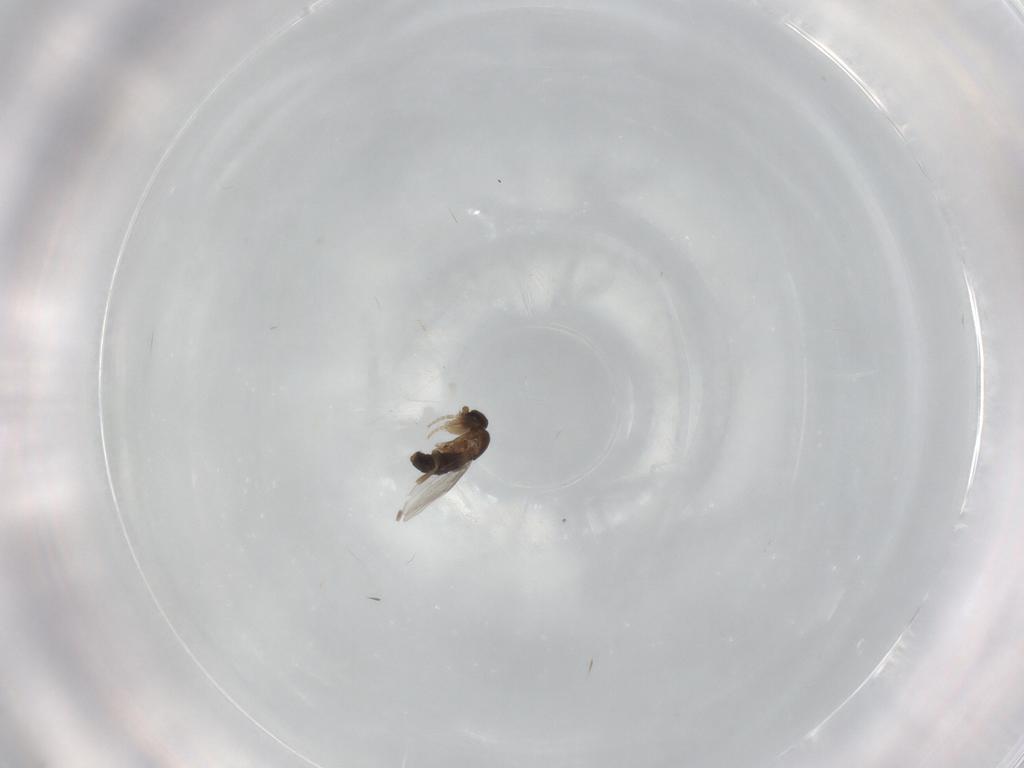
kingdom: Animalia
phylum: Arthropoda
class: Insecta
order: Diptera
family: Phoridae
